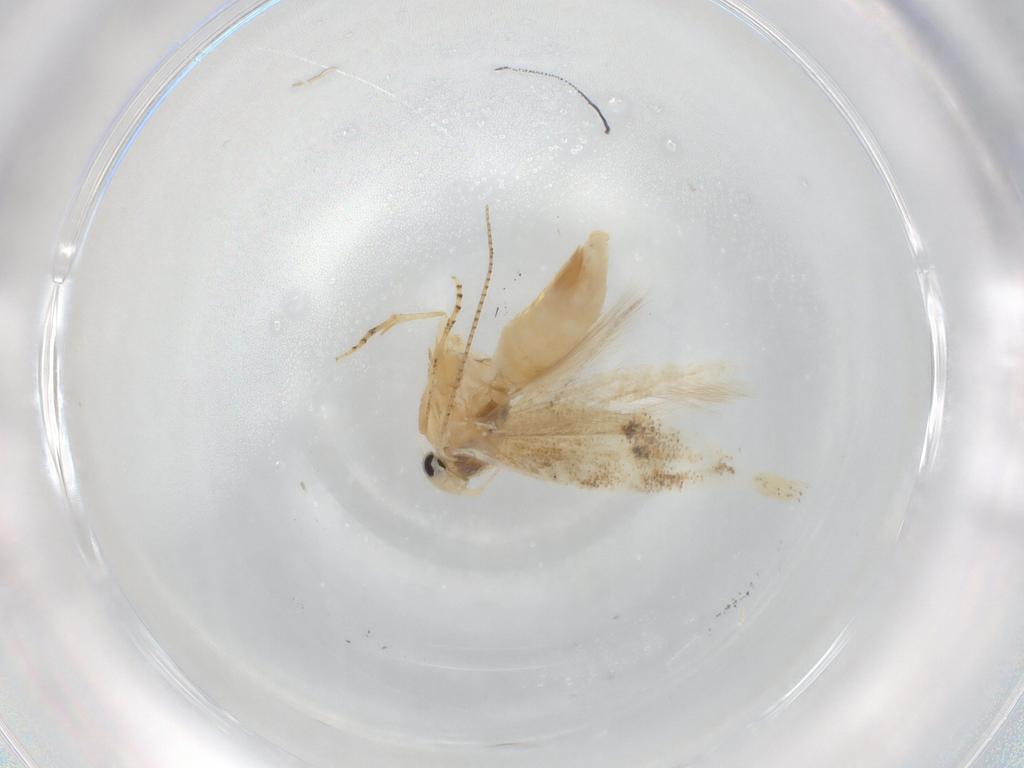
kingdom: Animalia
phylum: Arthropoda
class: Insecta
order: Lepidoptera
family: Bucculatricidae
